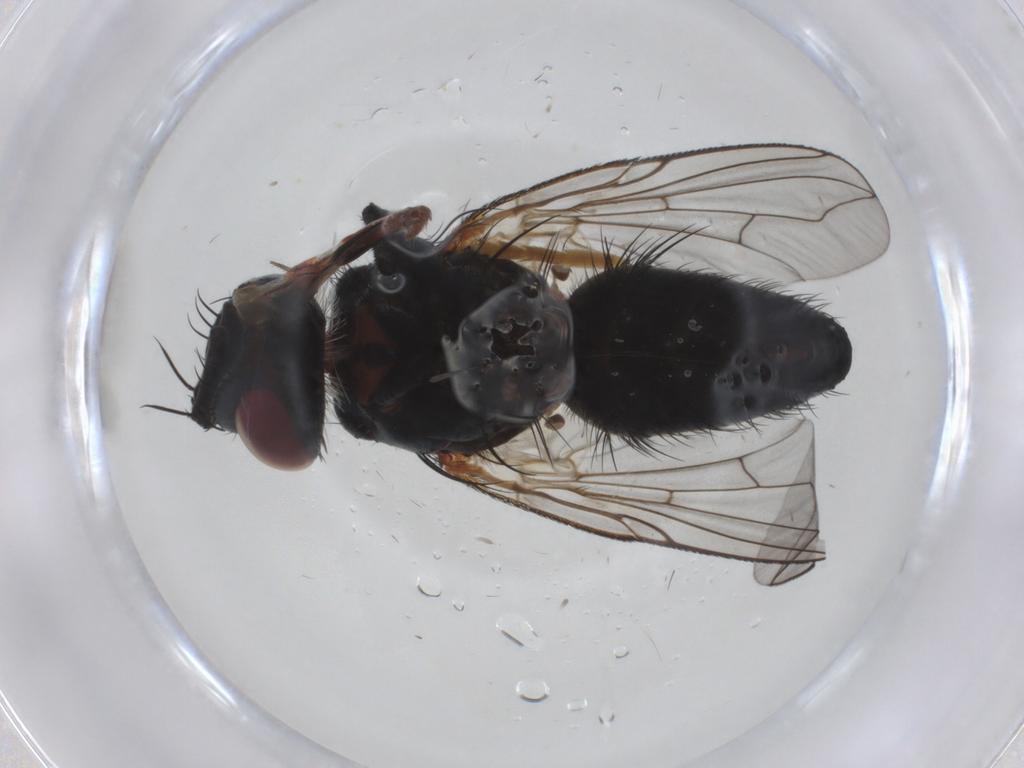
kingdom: Animalia
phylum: Arthropoda
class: Insecta
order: Diptera
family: Tachinidae
